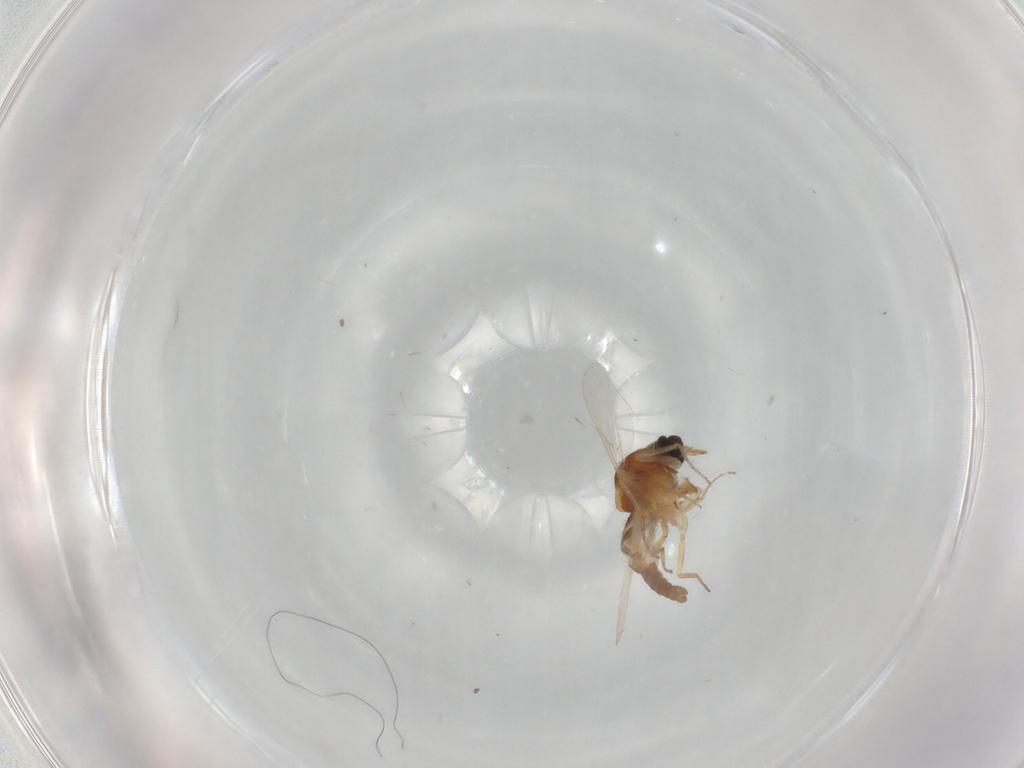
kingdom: Animalia
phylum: Arthropoda
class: Insecta
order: Diptera
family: Ceratopogonidae
